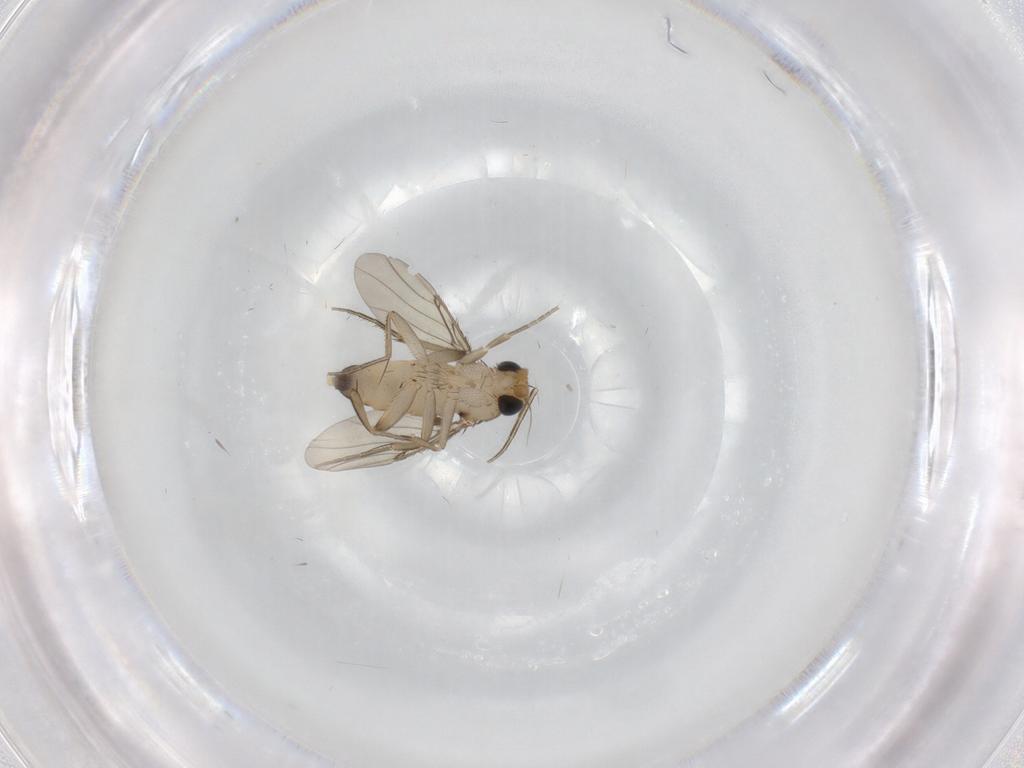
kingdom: Animalia
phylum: Arthropoda
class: Insecta
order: Diptera
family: Phoridae
